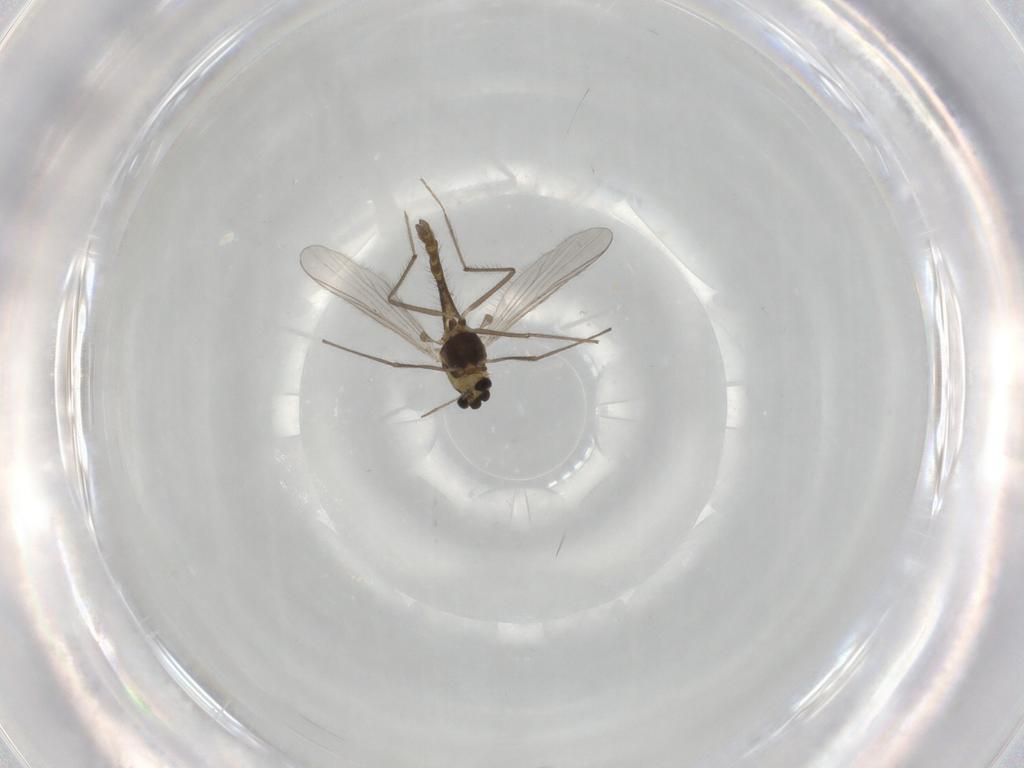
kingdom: Animalia
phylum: Arthropoda
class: Insecta
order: Diptera
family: Chironomidae
